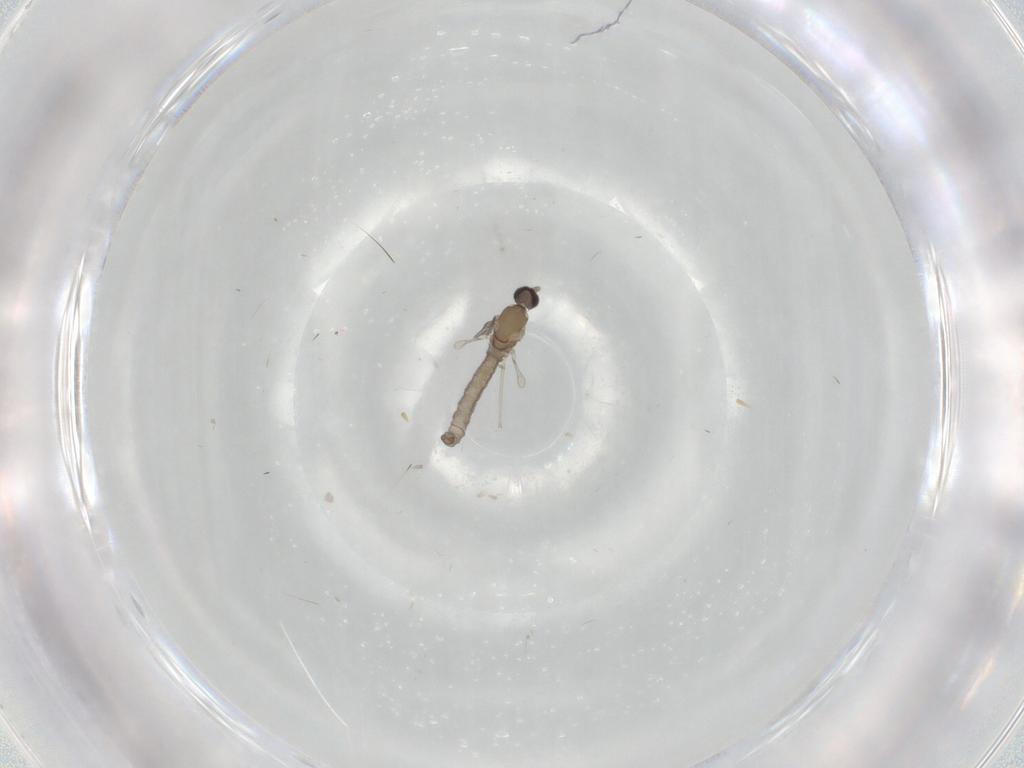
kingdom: Animalia
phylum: Arthropoda
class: Insecta
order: Diptera
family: Cecidomyiidae
